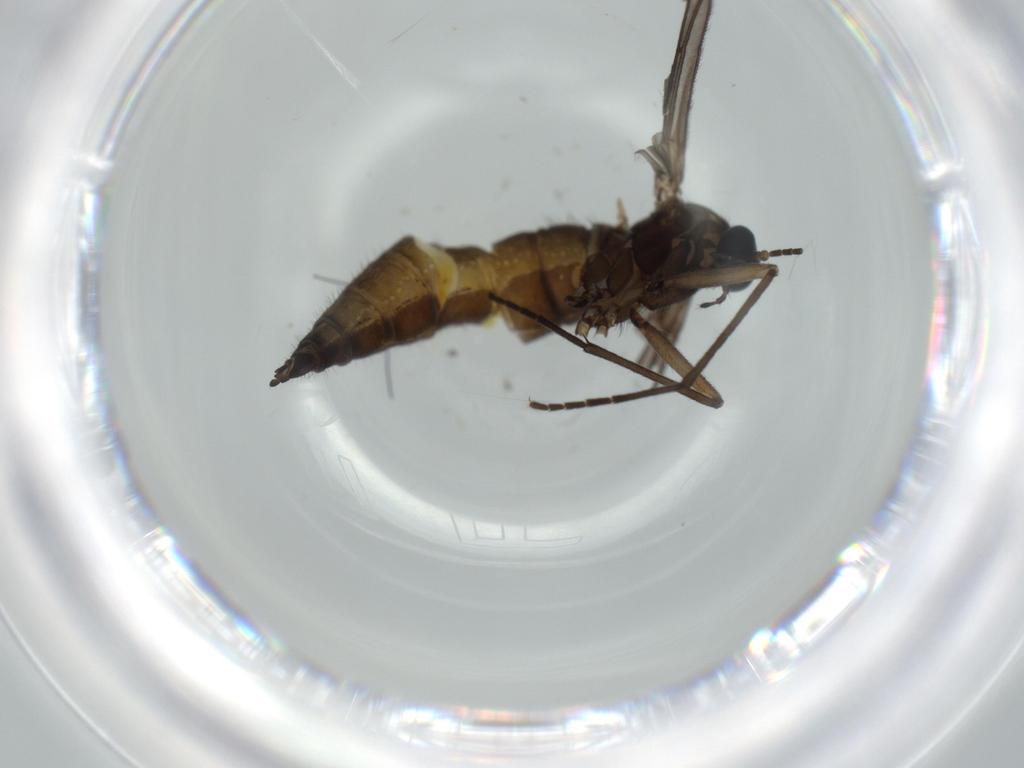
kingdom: Animalia
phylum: Arthropoda
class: Insecta
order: Diptera
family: Sciaridae
